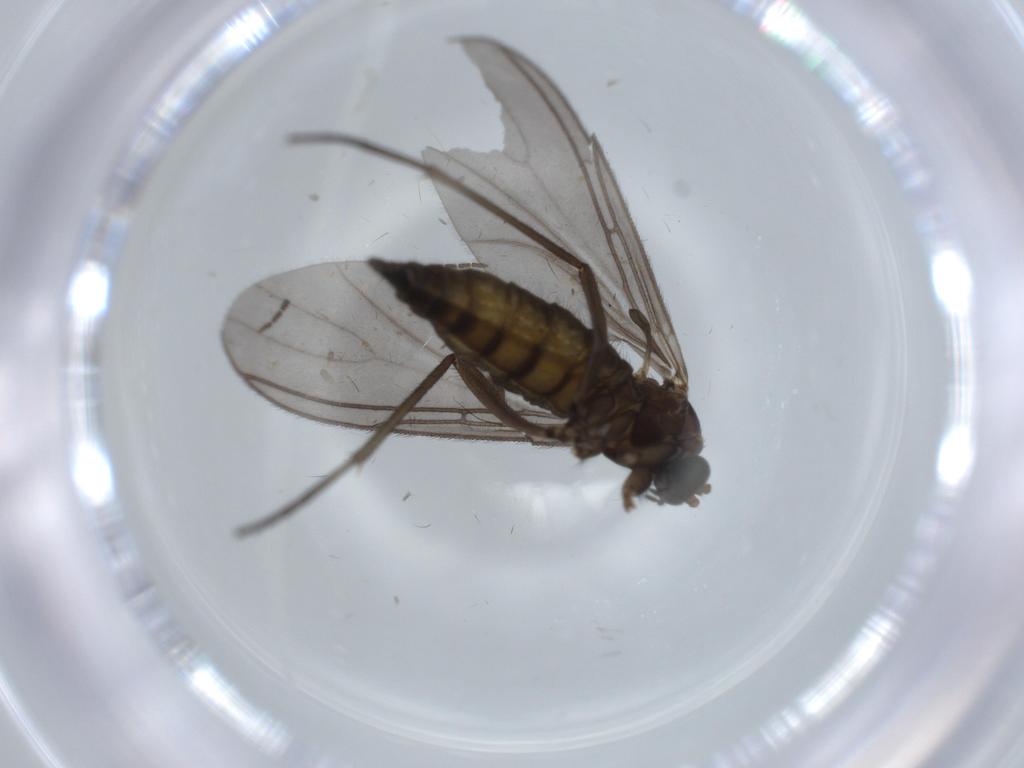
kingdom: Animalia
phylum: Arthropoda
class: Insecta
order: Diptera
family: Sciaridae
